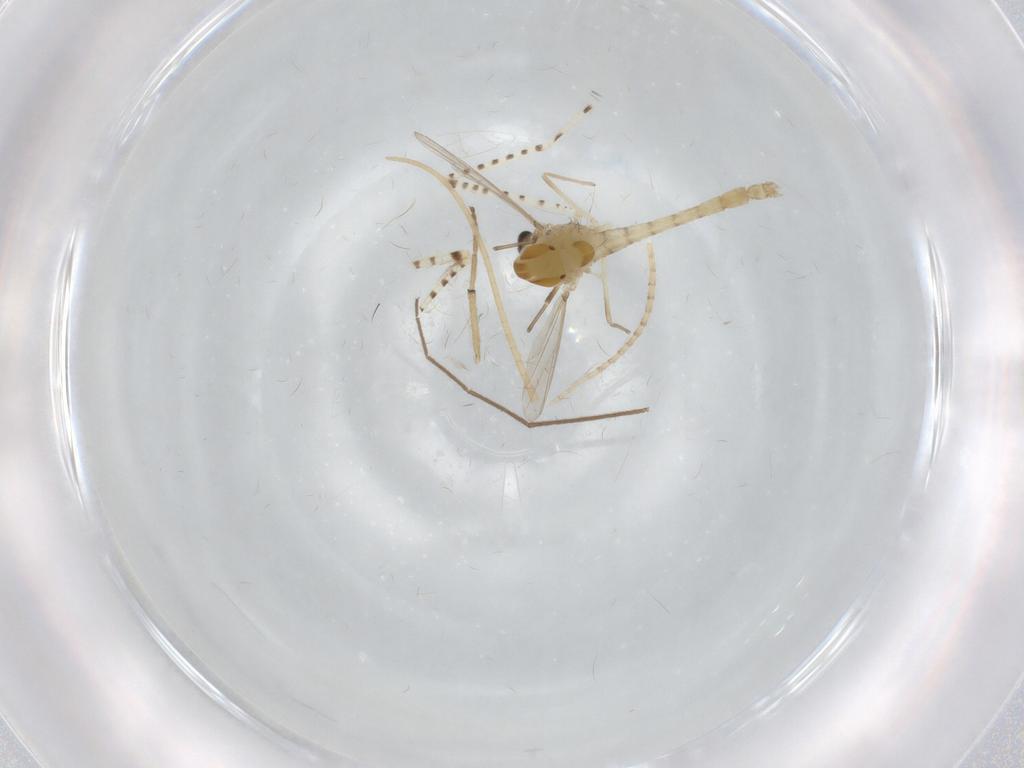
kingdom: Animalia
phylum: Arthropoda
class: Insecta
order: Diptera
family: Chironomidae
